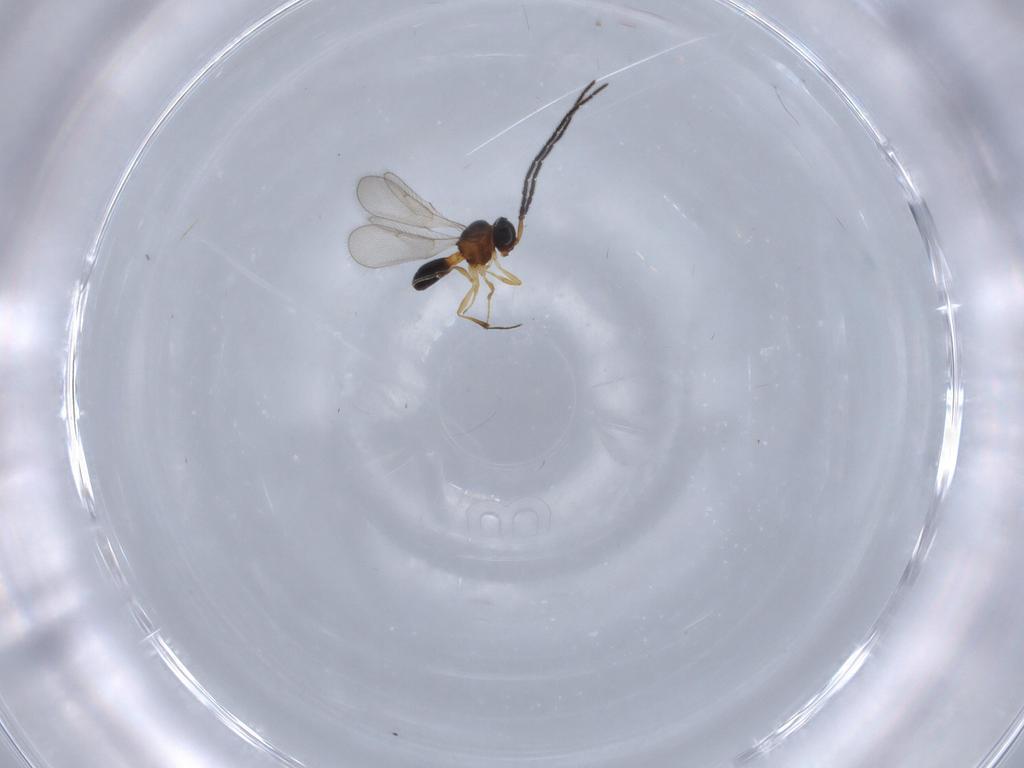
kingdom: Animalia
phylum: Arthropoda
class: Insecta
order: Hymenoptera
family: Scelionidae
